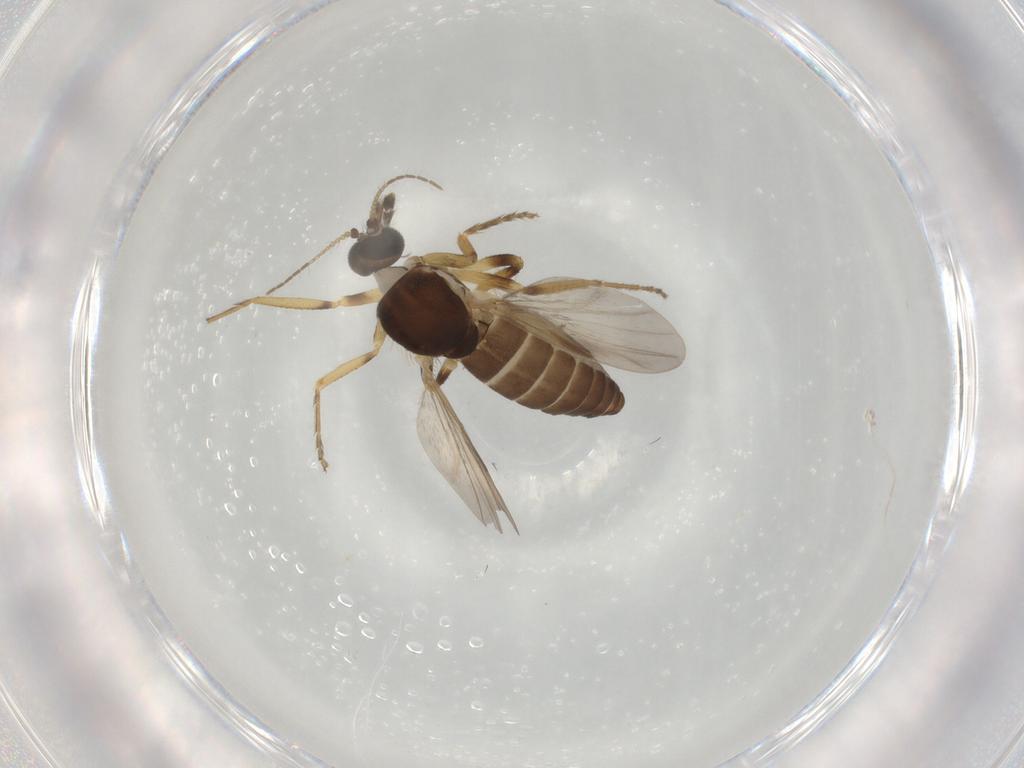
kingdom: Animalia
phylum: Arthropoda
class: Insecta
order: Diptera
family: Ceratopogonidae
